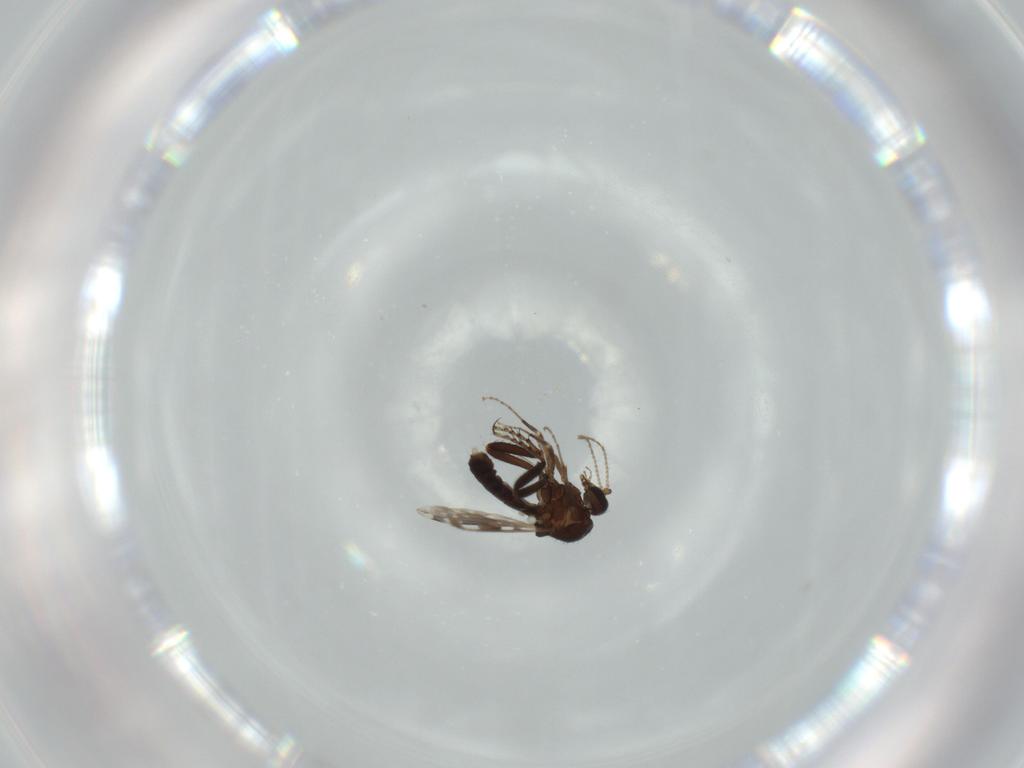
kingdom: Animalia
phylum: Arthropoda
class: Insecta
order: Diptera
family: Ceratopogonidae
